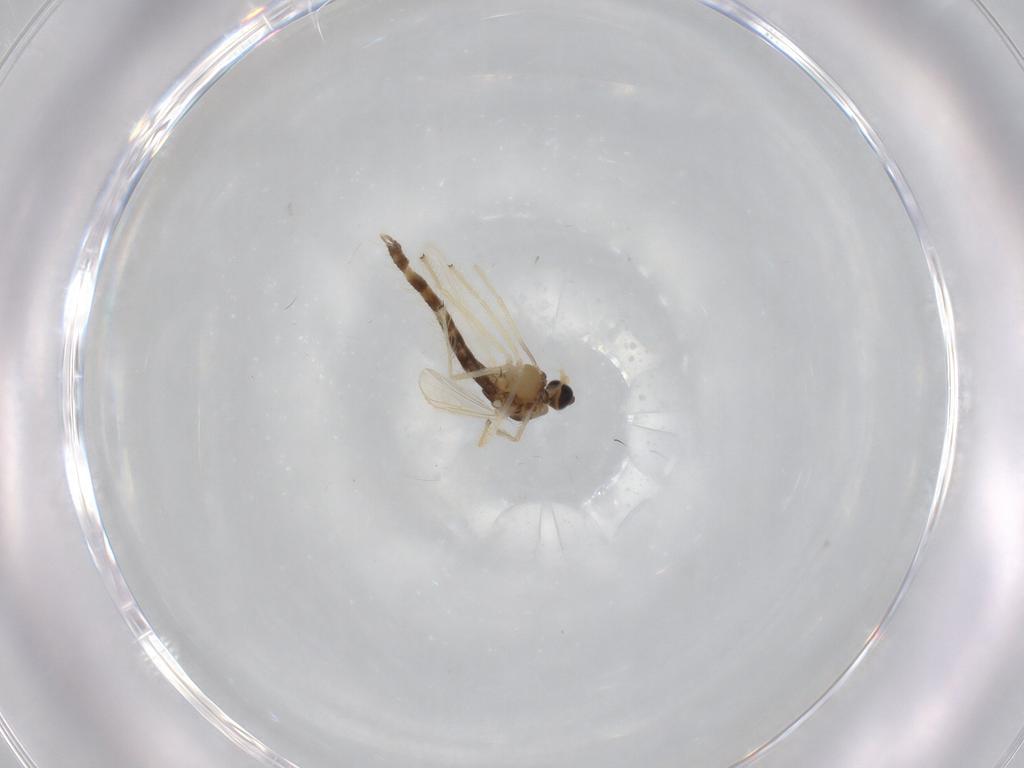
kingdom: Animalia
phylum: Arthropoda
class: Insecta
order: Diptera
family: Chironomidae
